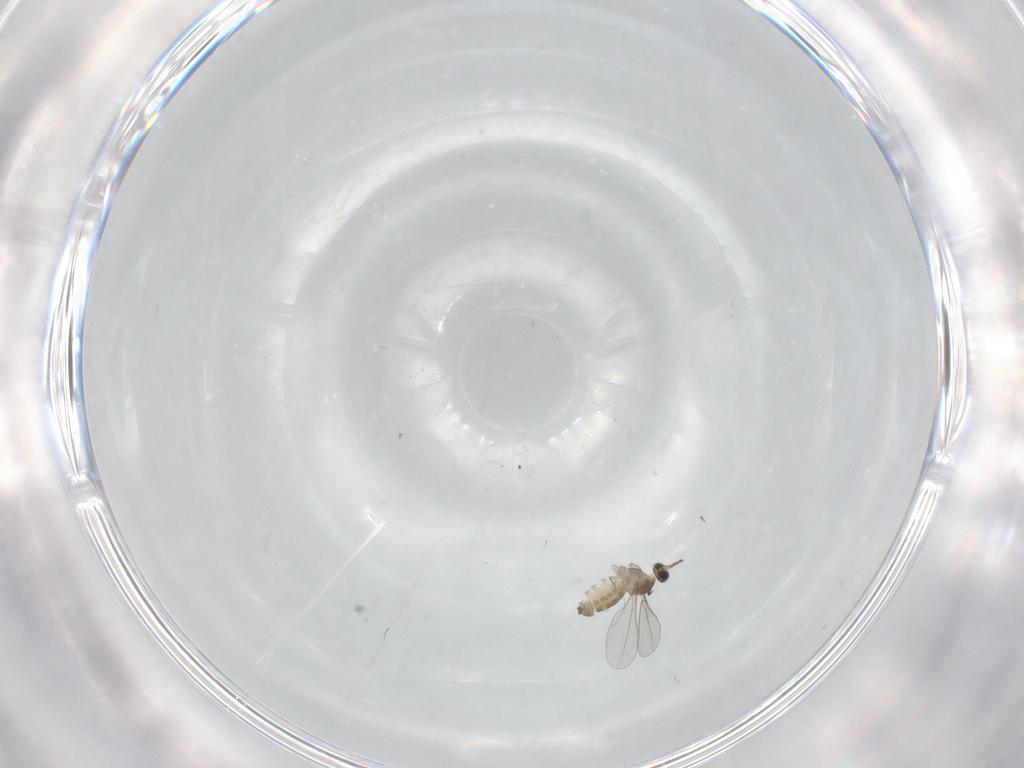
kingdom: Animalia
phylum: Arthropoda
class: Insecta
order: Diptera
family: Cecidomyiidae
